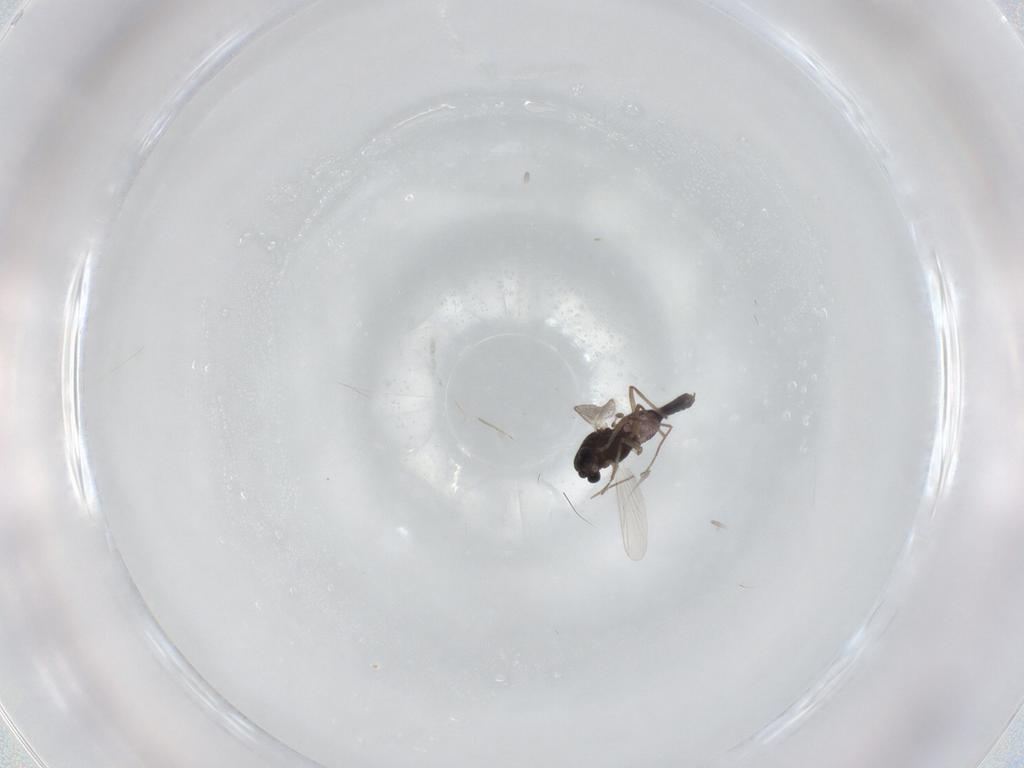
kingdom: Animalia
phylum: Arthropoda
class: Insecta
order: Diptera
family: Chironomidae
